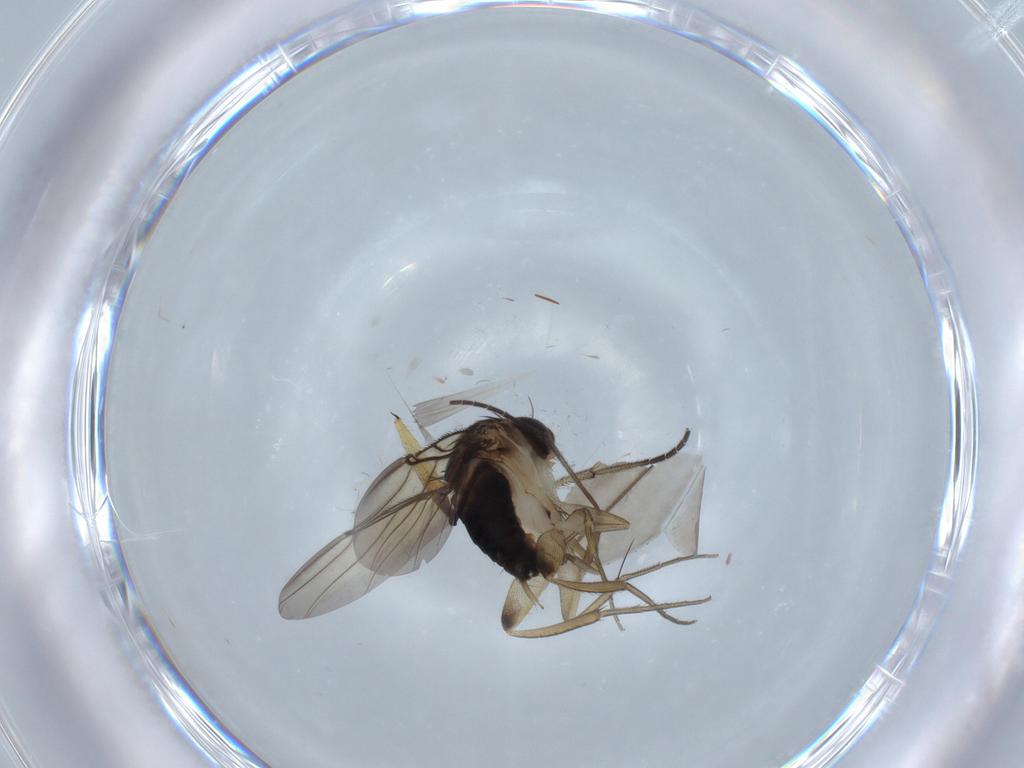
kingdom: Animalia
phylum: Arthropoda
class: Insecta
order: Diptera
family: Phoridae
